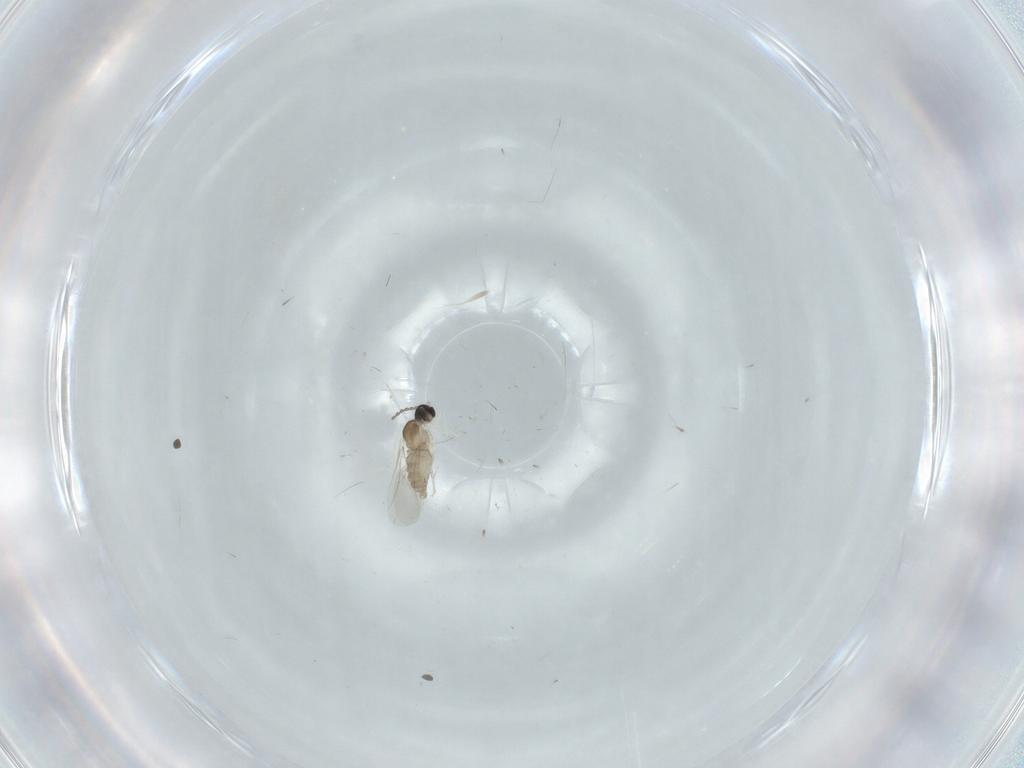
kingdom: Animalia
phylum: Arthropoda
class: Insecta
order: Diptera
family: Cecidomyiidae
